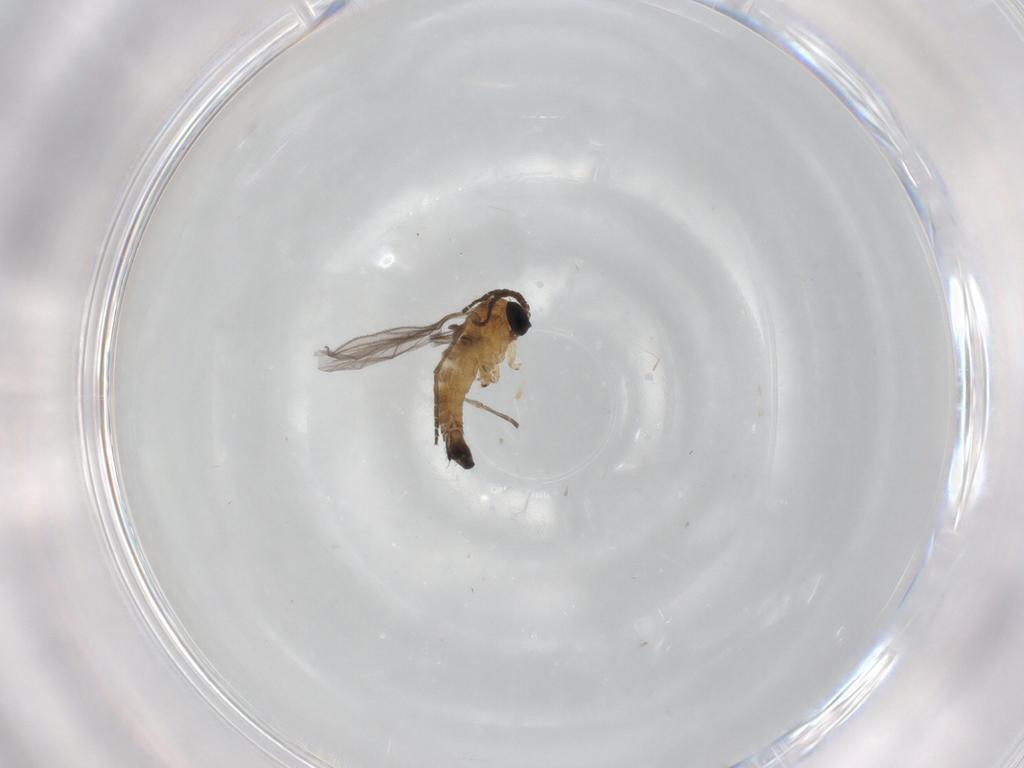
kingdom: Animalia
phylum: Arthropoda
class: Insecta
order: Diptera
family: Sciaridae
